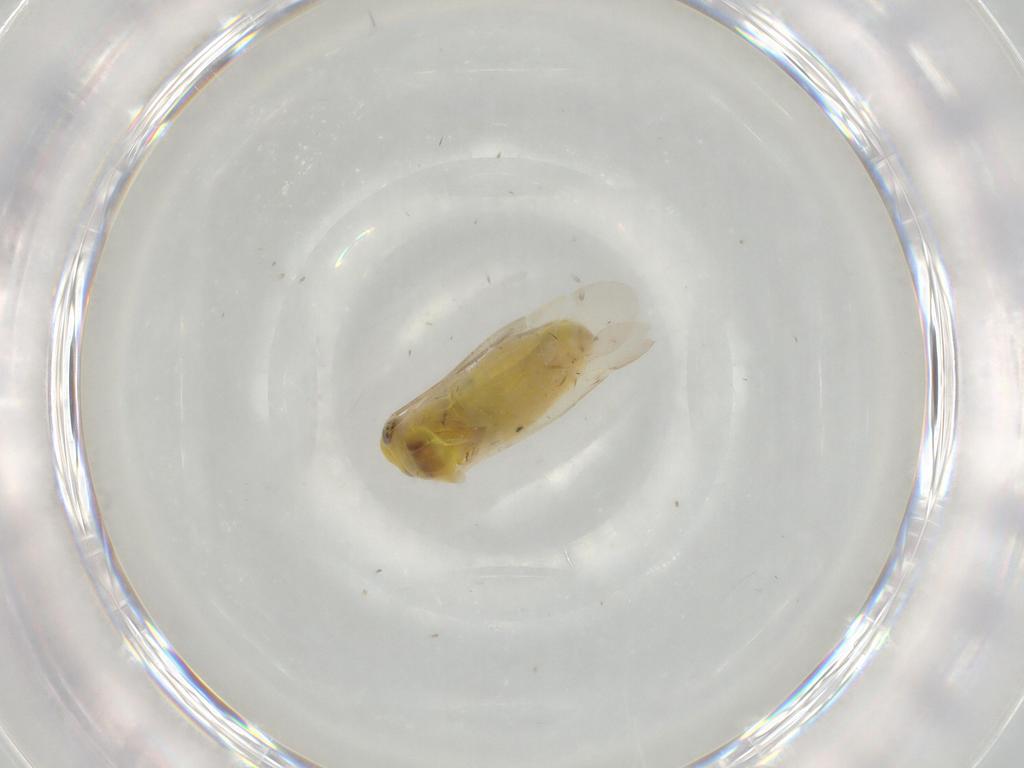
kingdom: Animalia
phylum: Arthropoda
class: Insecta
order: Hemiptera
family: Miridae
